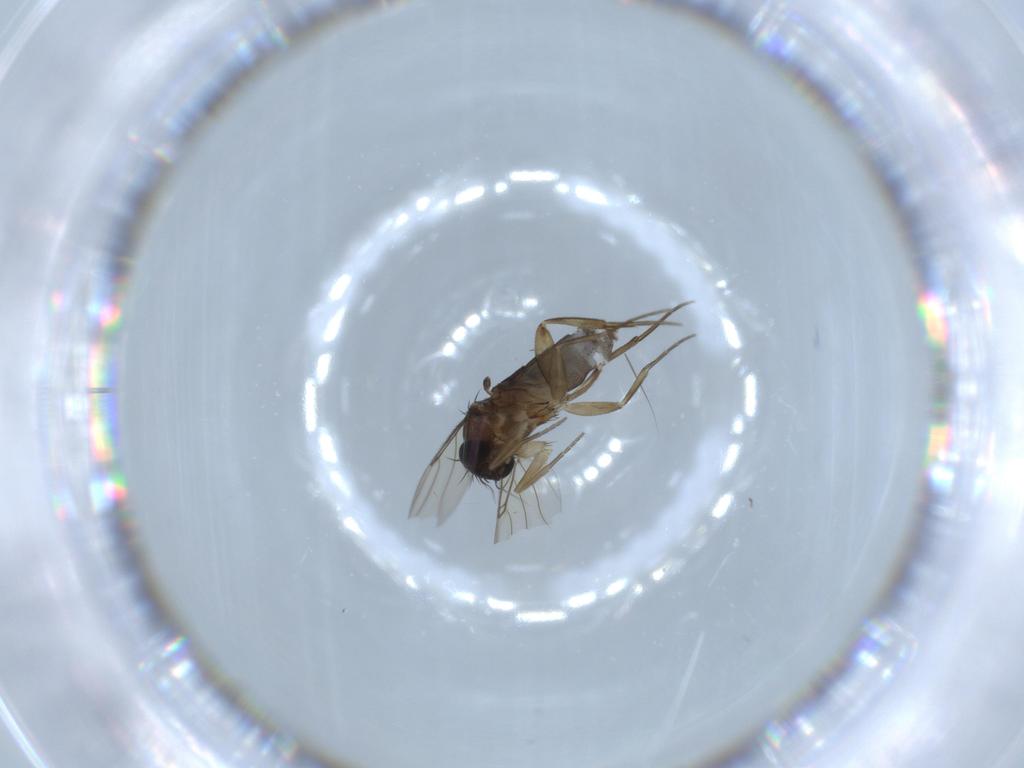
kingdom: Animalia
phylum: Arthropoda
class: Insecta
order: Diptera
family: Phoridae
